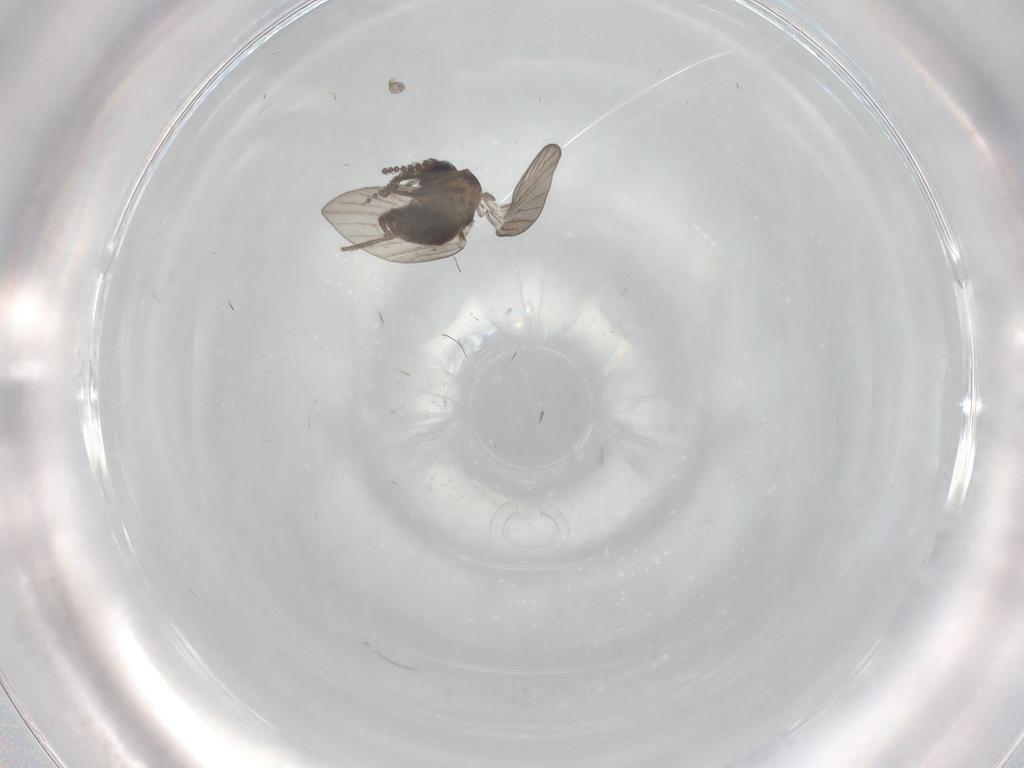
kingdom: Animalia
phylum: Arthropoda
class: Insecta
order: Diptera
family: Psychodidae
